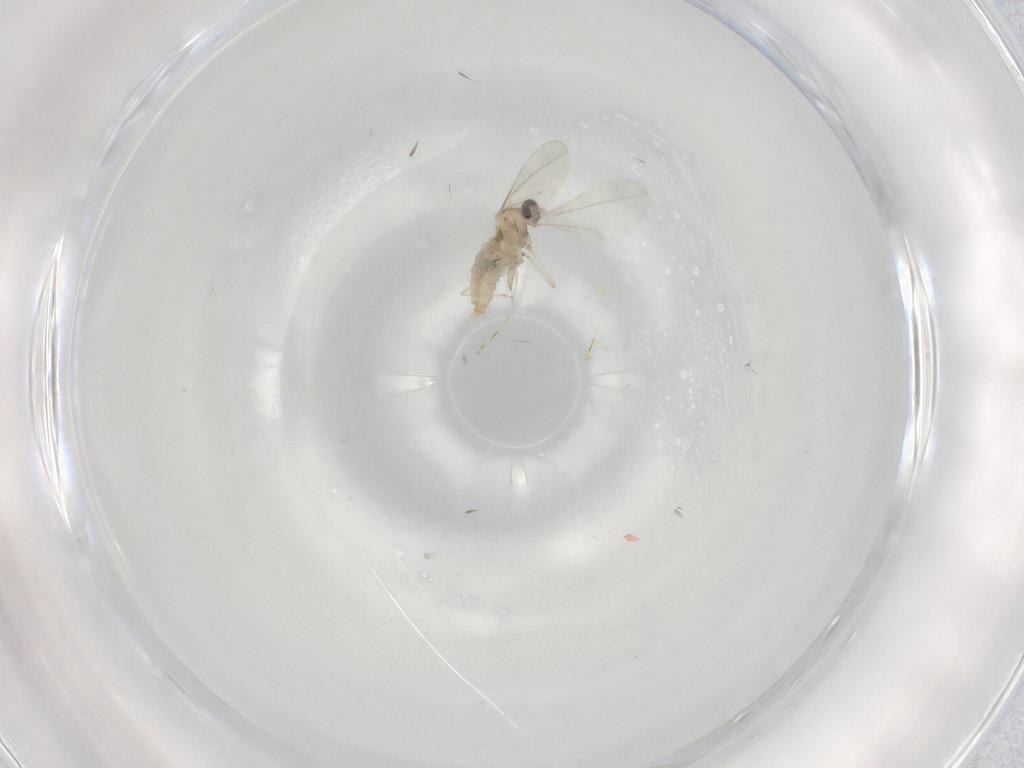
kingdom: Animalia
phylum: Arthropoda
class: Insecta
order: Diptera
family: Cecidomyiidae
